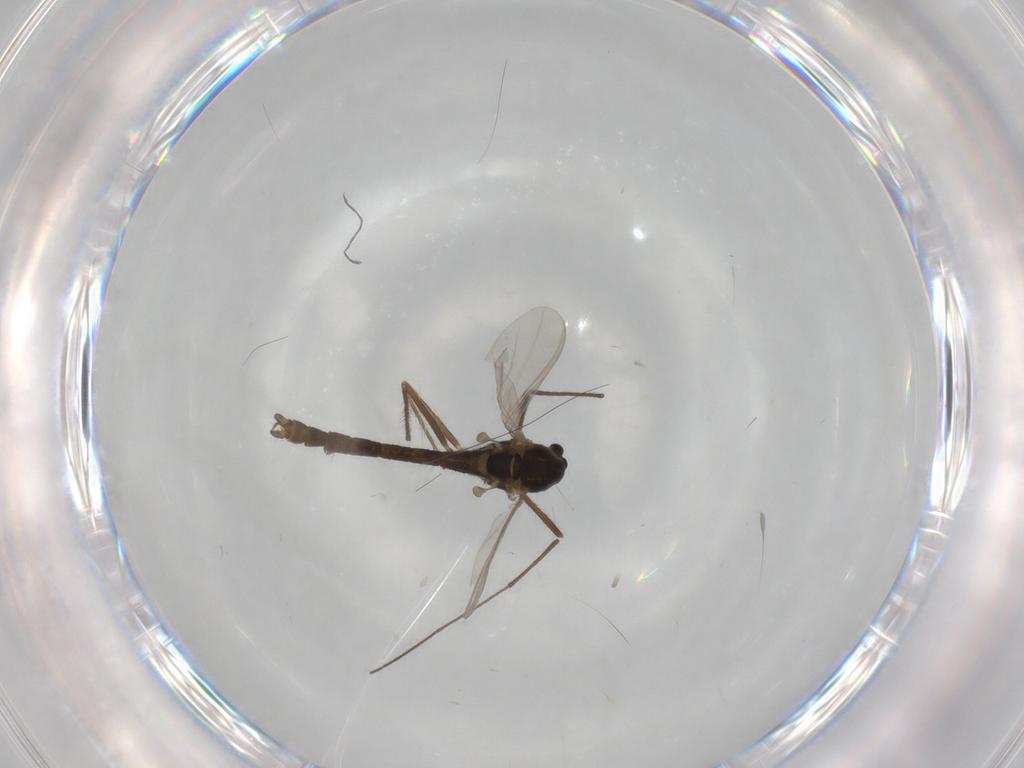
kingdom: Animalia
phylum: Arthropoda
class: Insecta
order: Diptera
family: Chironomidae
